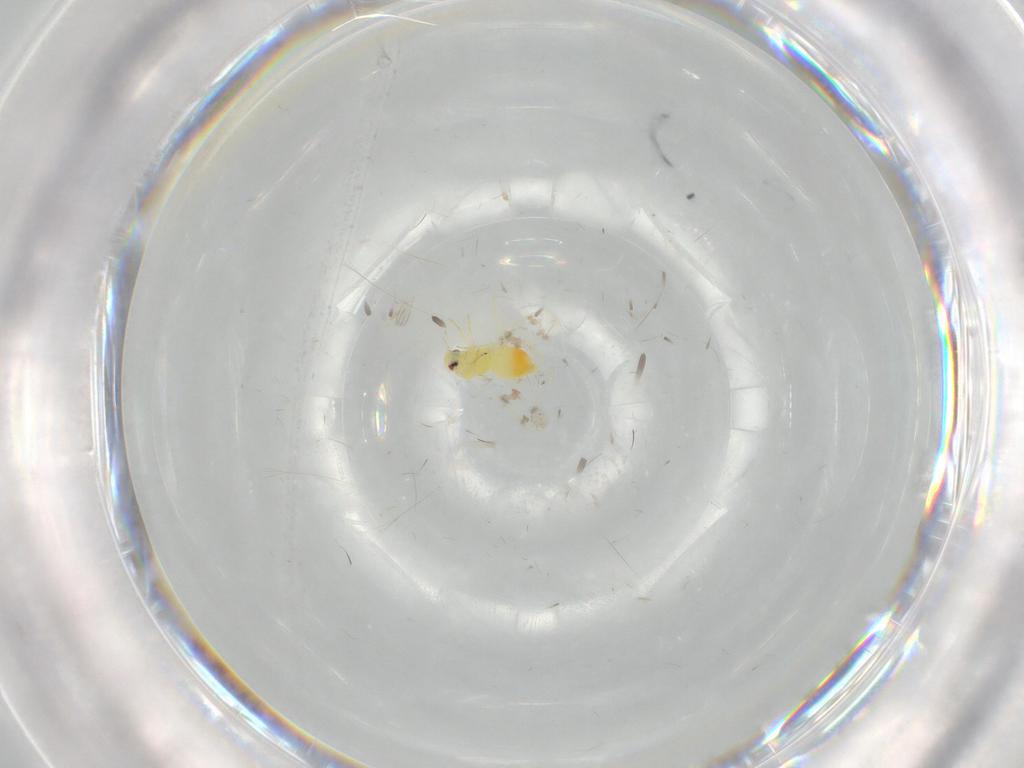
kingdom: Animalia
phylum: Arthropoda
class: Insecta
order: Hemiptera
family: Aleyrodidae
